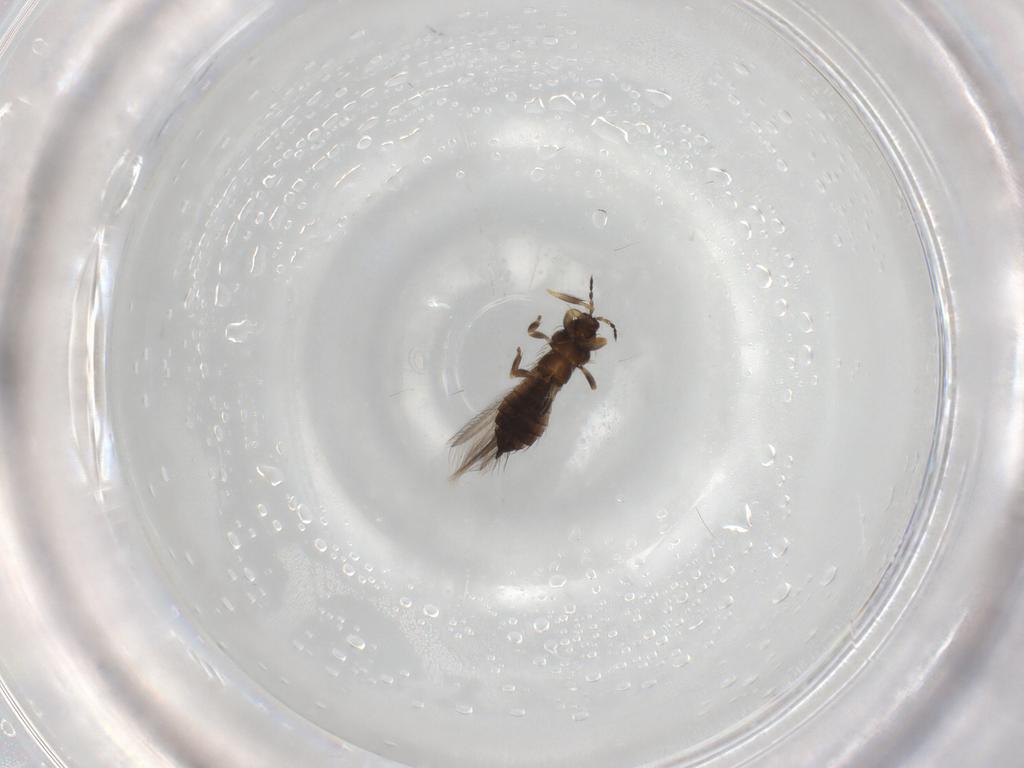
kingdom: Animalia
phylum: Arthropoda
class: Insecta
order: Thysanoptera
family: Thripidae
